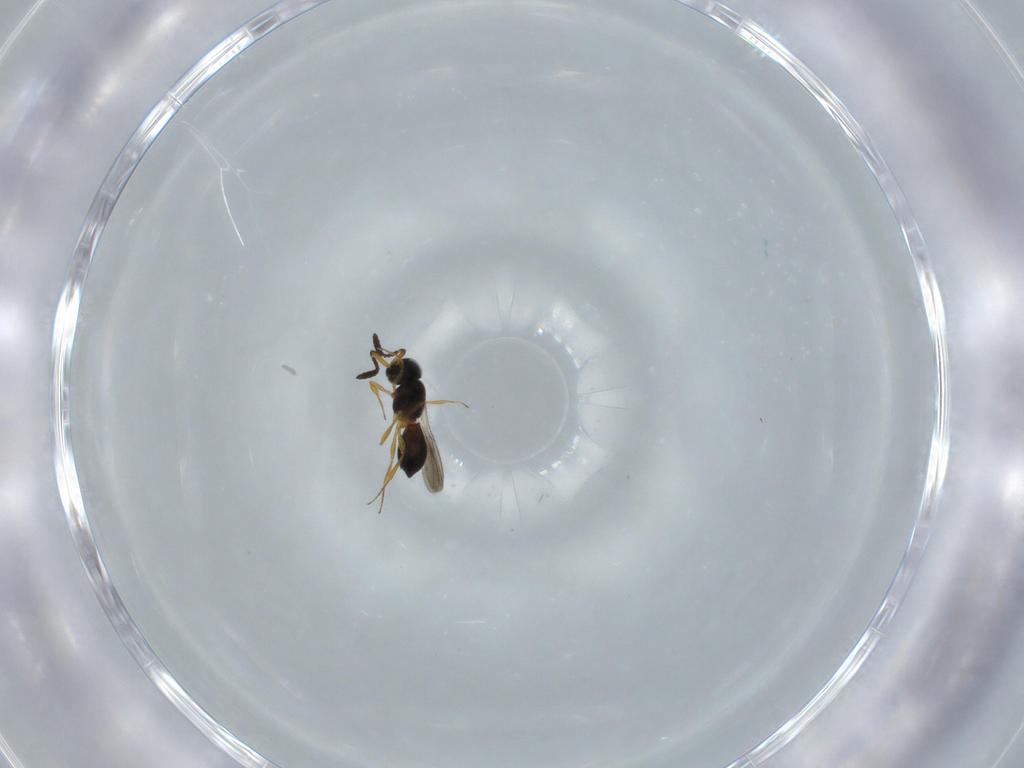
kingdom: Animalia
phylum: Arthropoda
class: Insecta
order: Hymenoptera
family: Scelionidae
